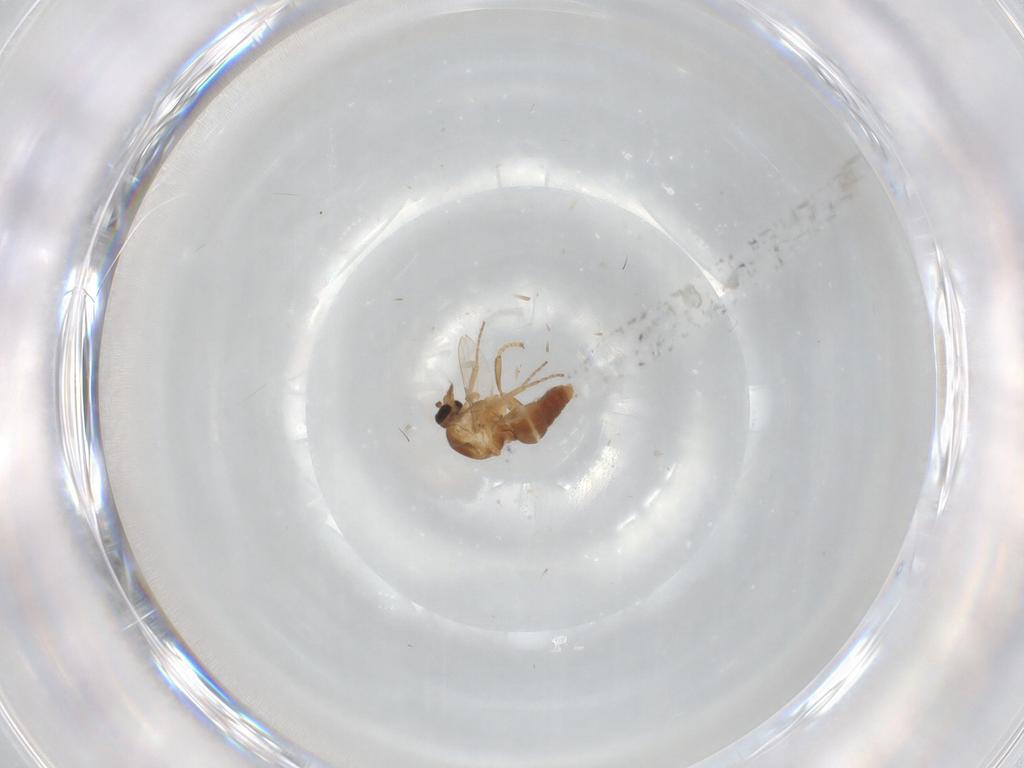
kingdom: Animalia
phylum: Arthropoda
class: Insecta
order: Diptera
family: Ceratopogonidae
